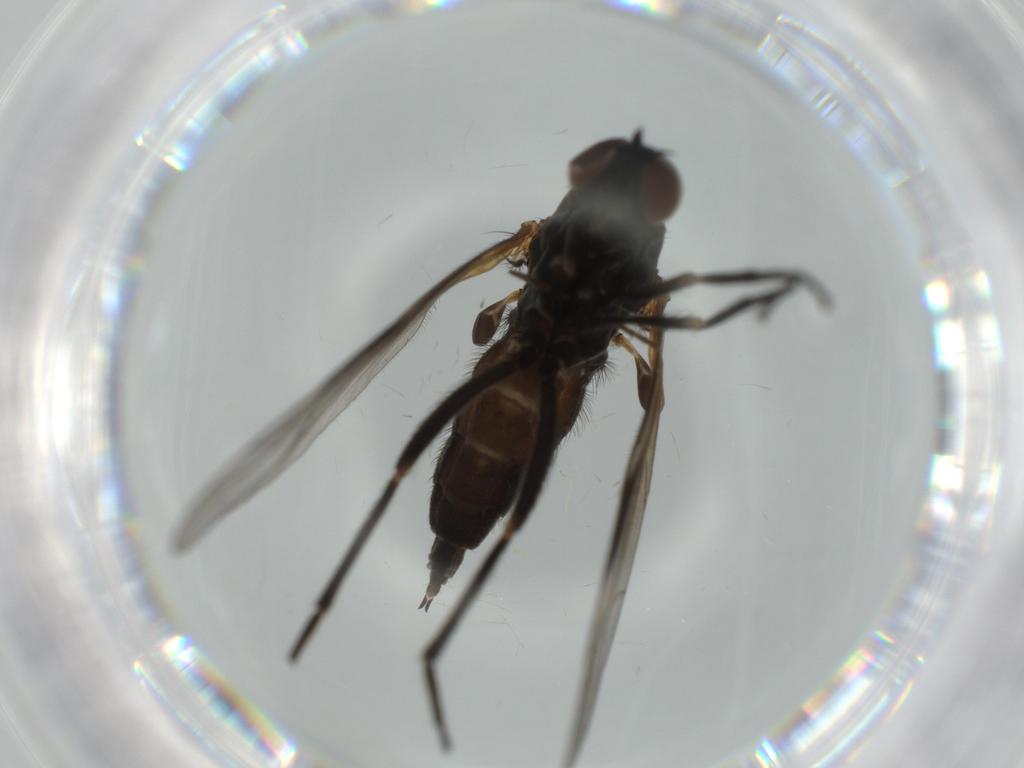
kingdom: Animalia
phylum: Arthropoda
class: Insecta
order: Diptera
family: Empididae
